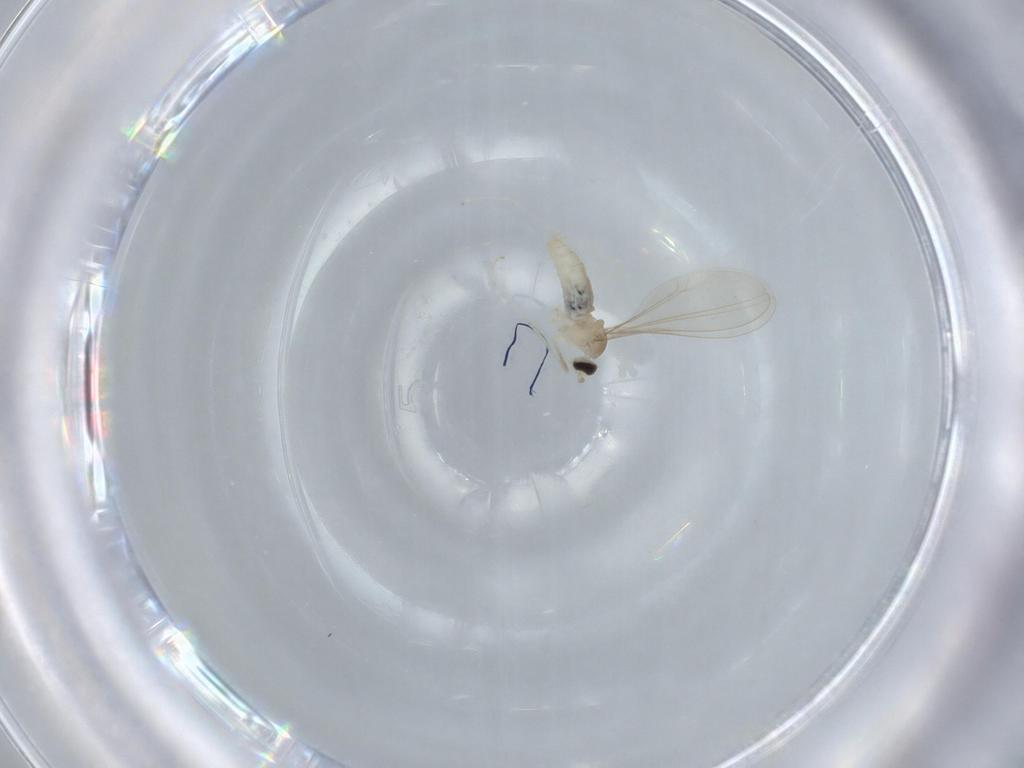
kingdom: Animalia
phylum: Arthropoda
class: Insecta
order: Diptera
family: Cecidomyiidae
